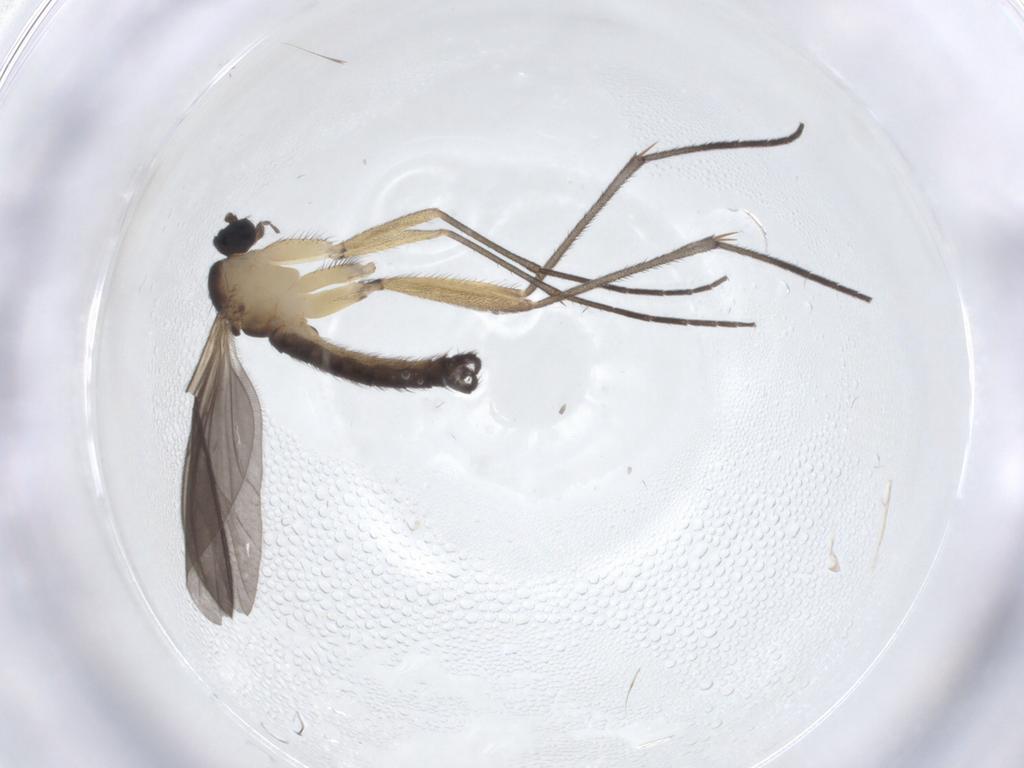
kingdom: Animalia
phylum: Arthropoda
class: Insecta
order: Diptera
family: Sciaridae
